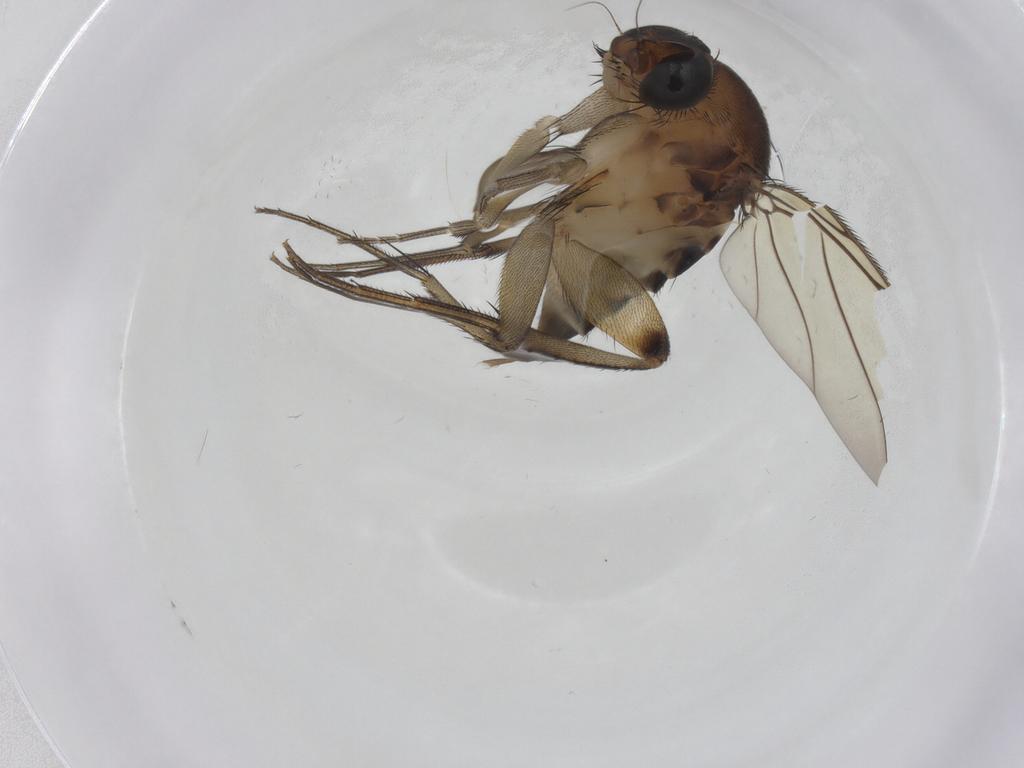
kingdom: Animalia
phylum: Arthropoda
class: Insecta
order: Diptera
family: Phoridae
